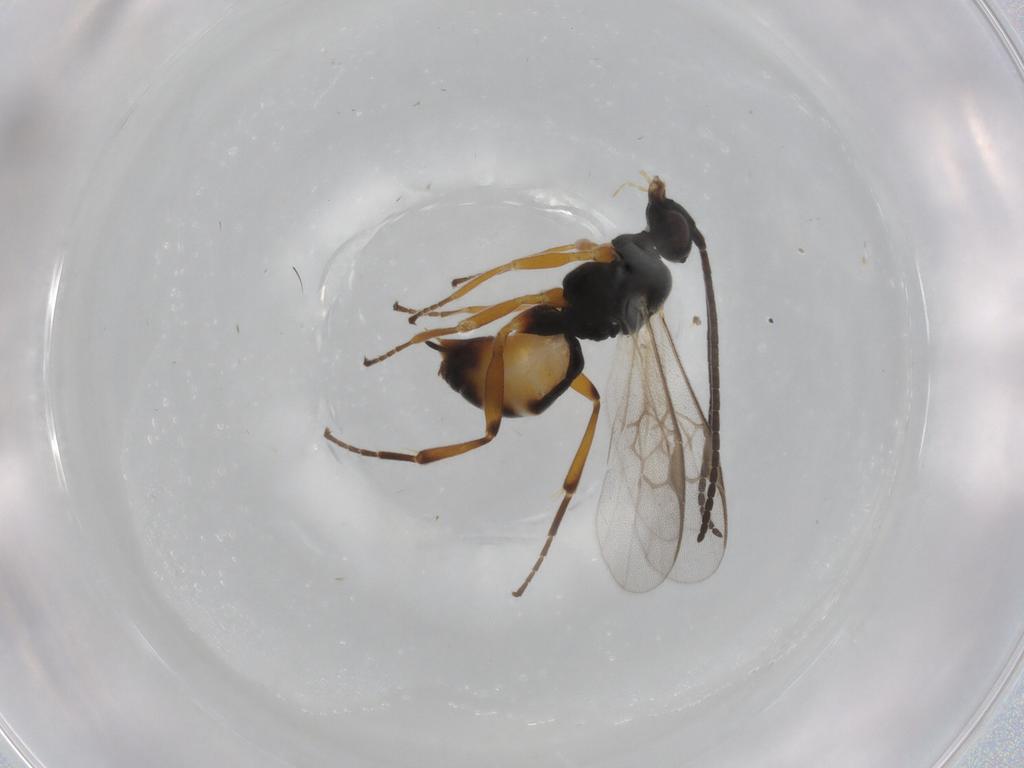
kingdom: Animalia
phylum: Arthropoda
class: Insecta
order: Hymenoptera
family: Braconidae
